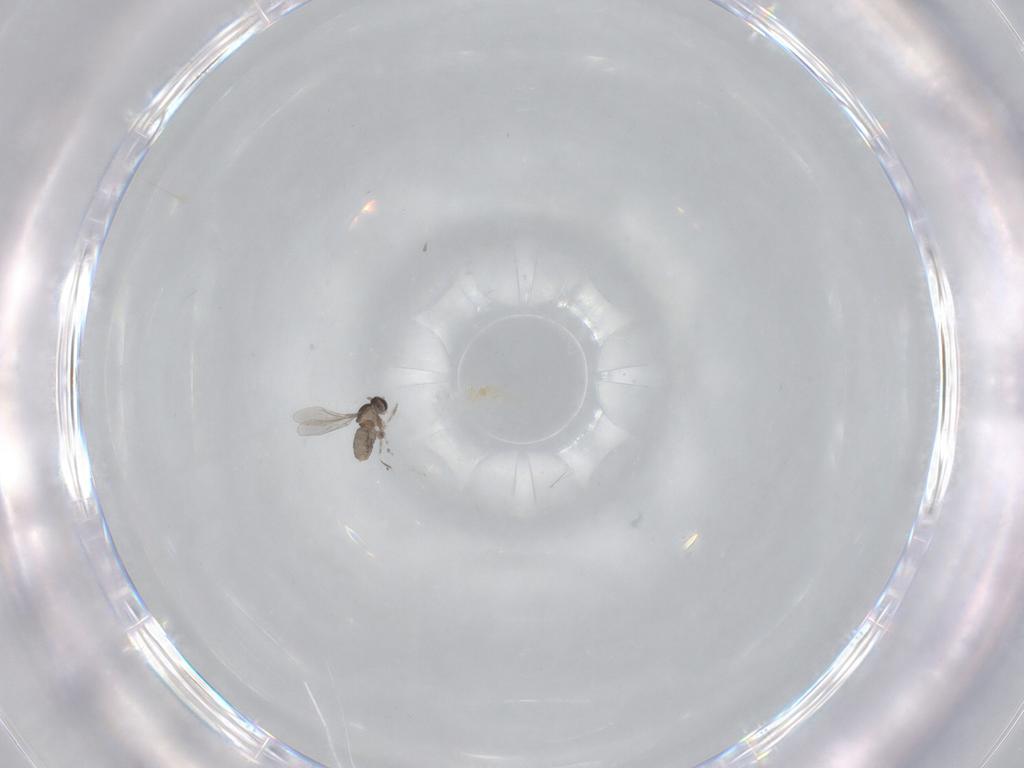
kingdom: Animalia
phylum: Arthropoda
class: Insecta
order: Diptera
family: Cecidomyiidae
